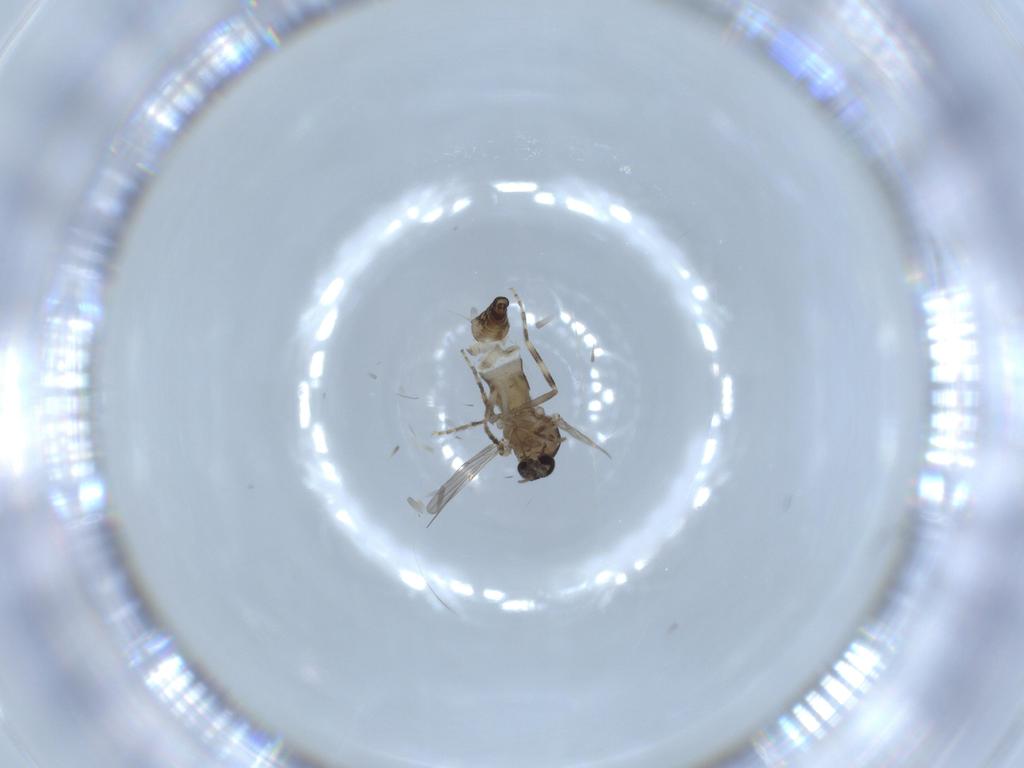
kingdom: Animalia
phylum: Arthropoda
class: Insecta
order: Diptera
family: Ceratopogonidae
